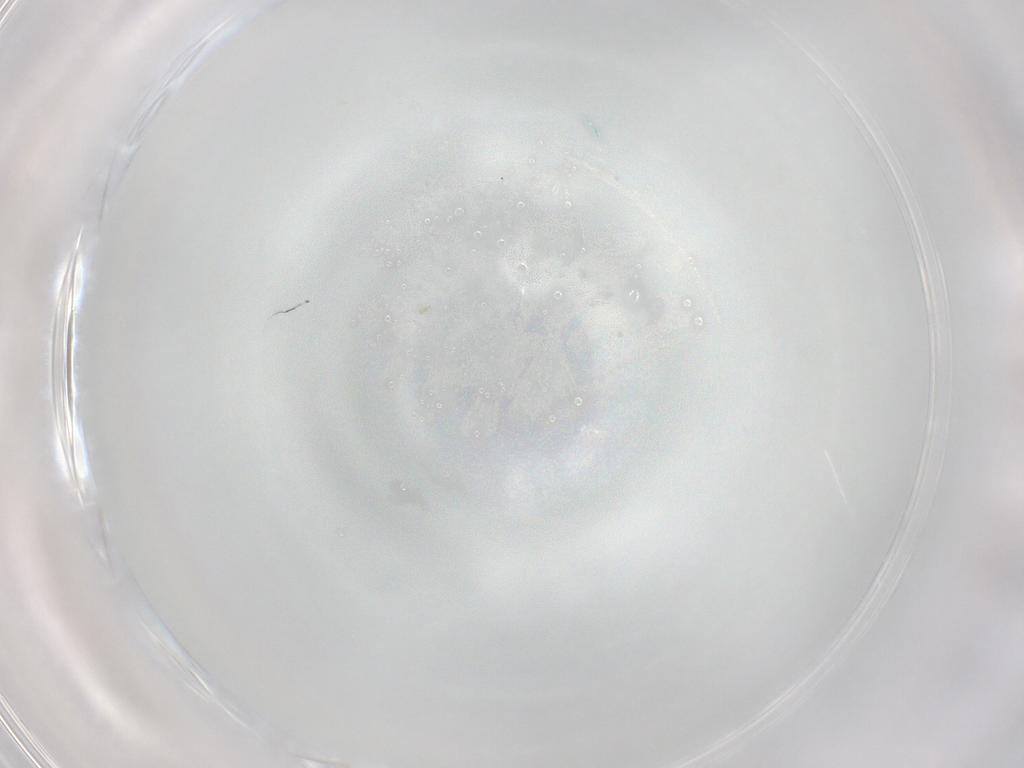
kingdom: Animalia
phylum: Arthropoda
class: Insecta
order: Diptera
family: Cecidomyiidae
